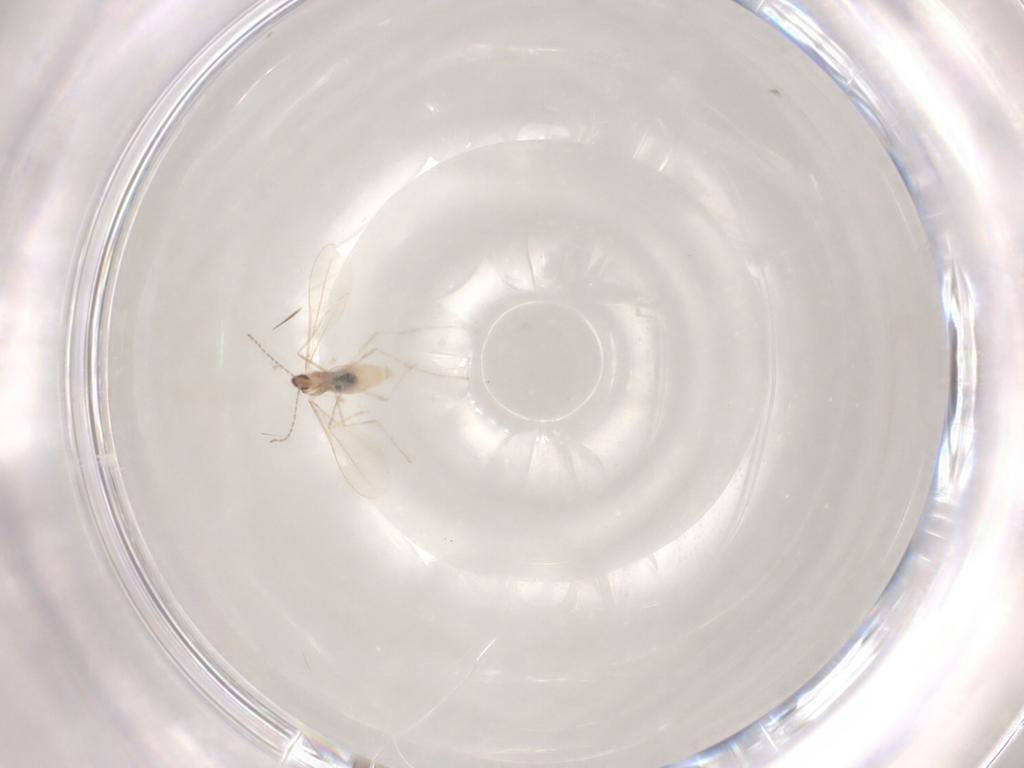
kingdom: Animalia
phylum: Arthropoda
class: Insecta
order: Diptera
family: Cecidomyiidae
